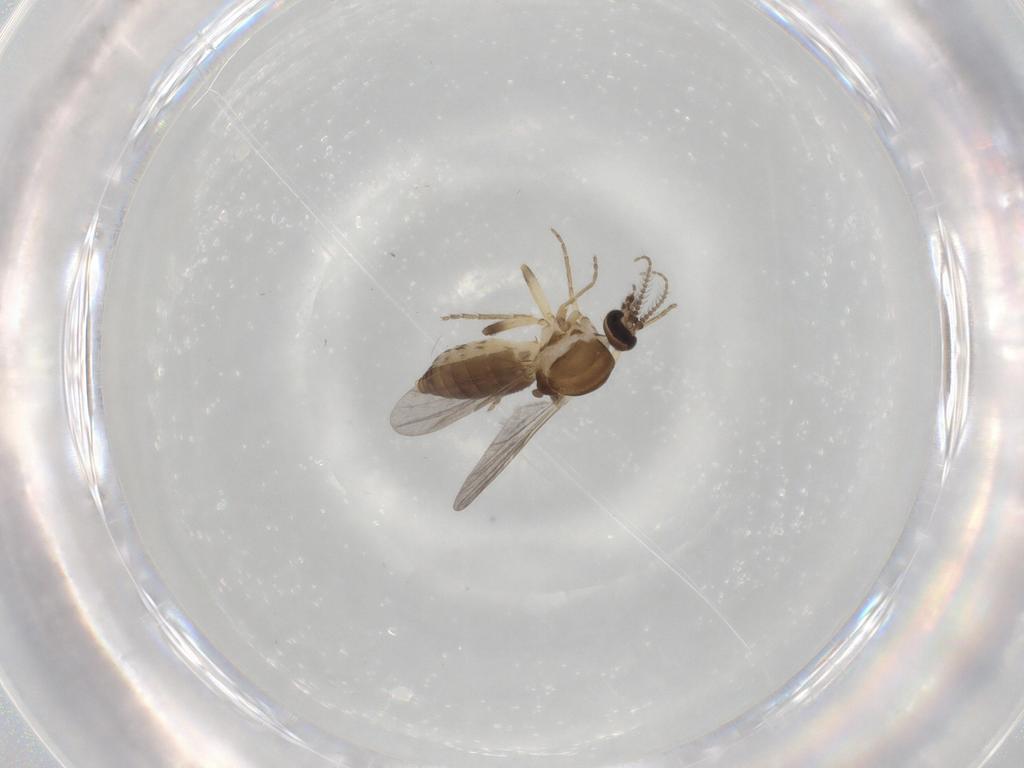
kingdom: Animalia
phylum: Arthropoda
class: Insecta
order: Diptera
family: Ceratopogonidae
